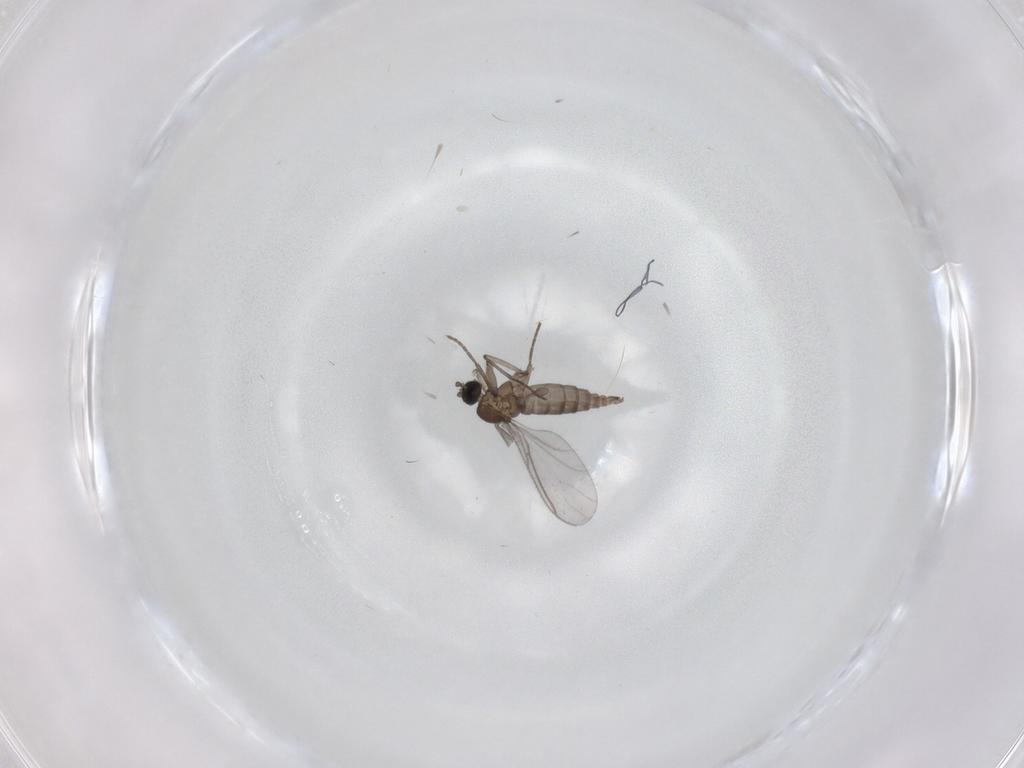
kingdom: Animalia
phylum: Arthropoda
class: Insecta
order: Diptera
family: Sciaridae
